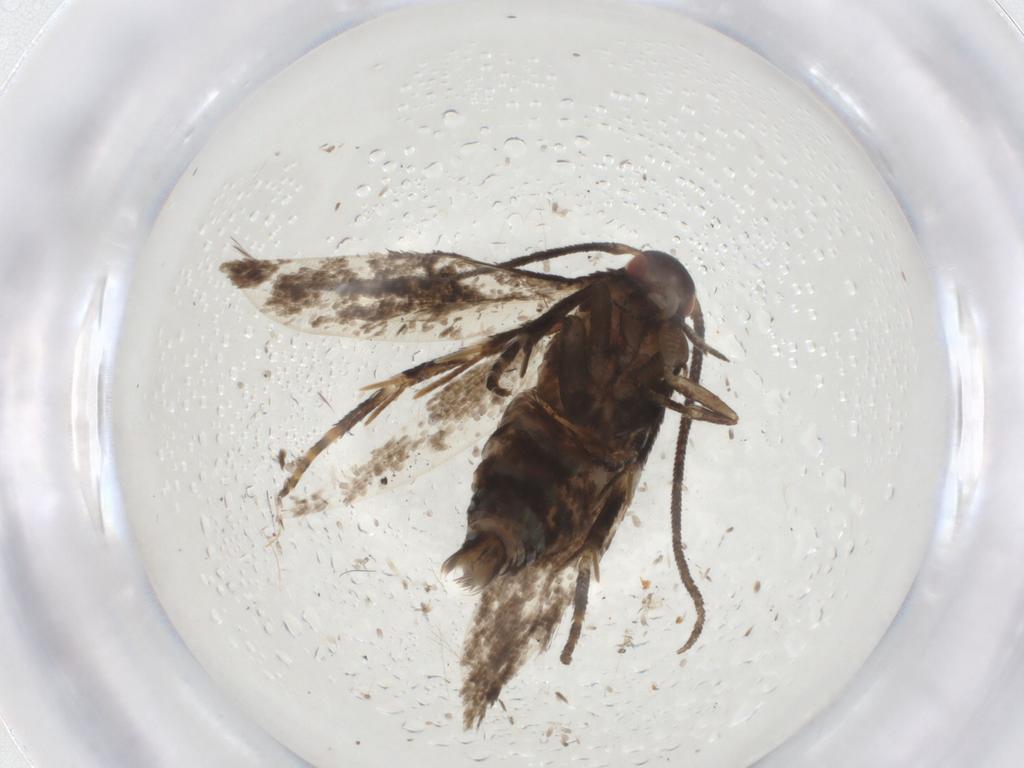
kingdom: Animalia
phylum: Arthropoda
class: Insecta
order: Lepidoptera
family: Momphidae
